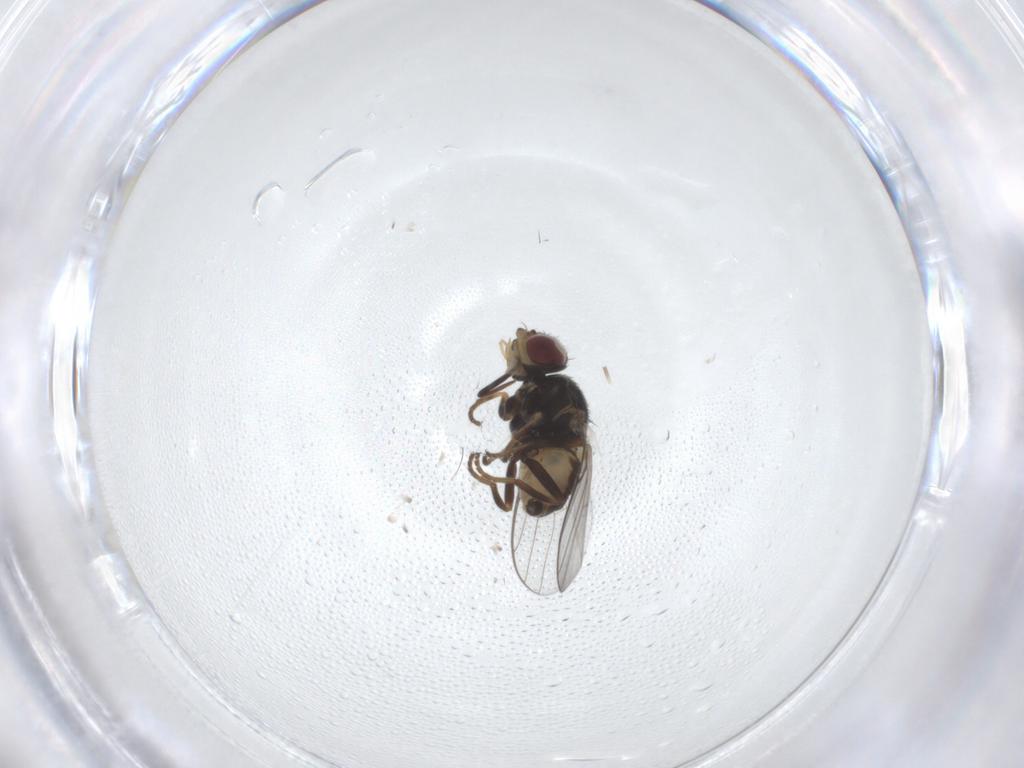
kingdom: Animalia
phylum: Arthropoda
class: Insecta
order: Diptera
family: Chloropidae
